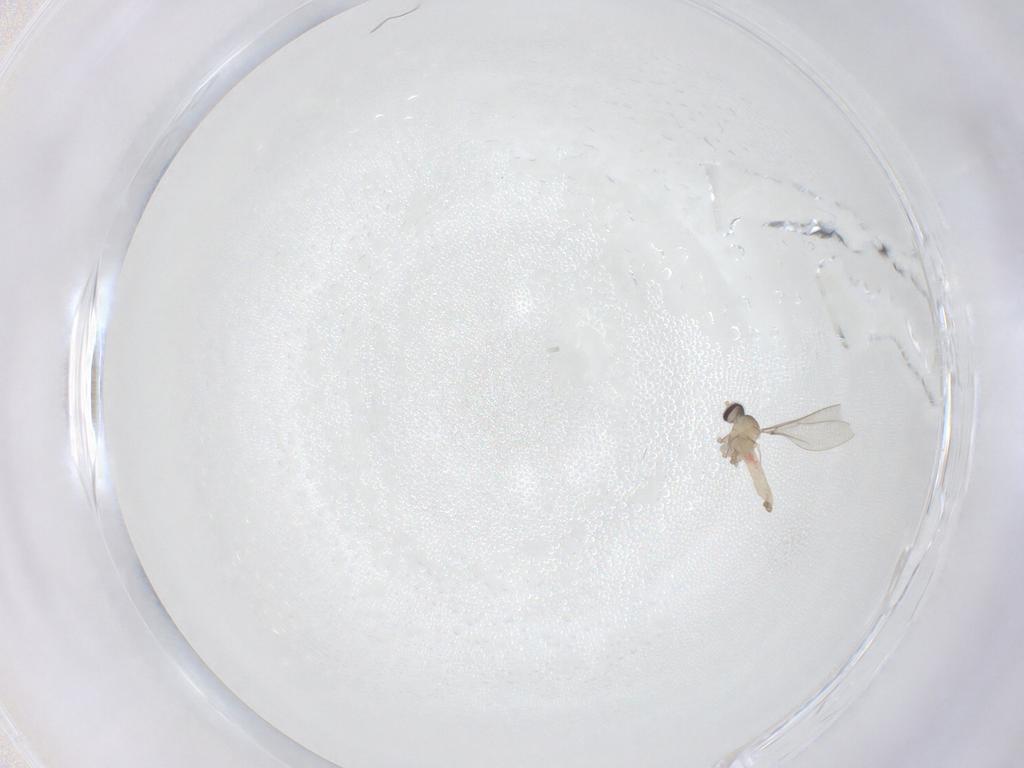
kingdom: Animalia
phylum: Arthropoda
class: Insecta
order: Diptera
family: Cecidomyiidae
